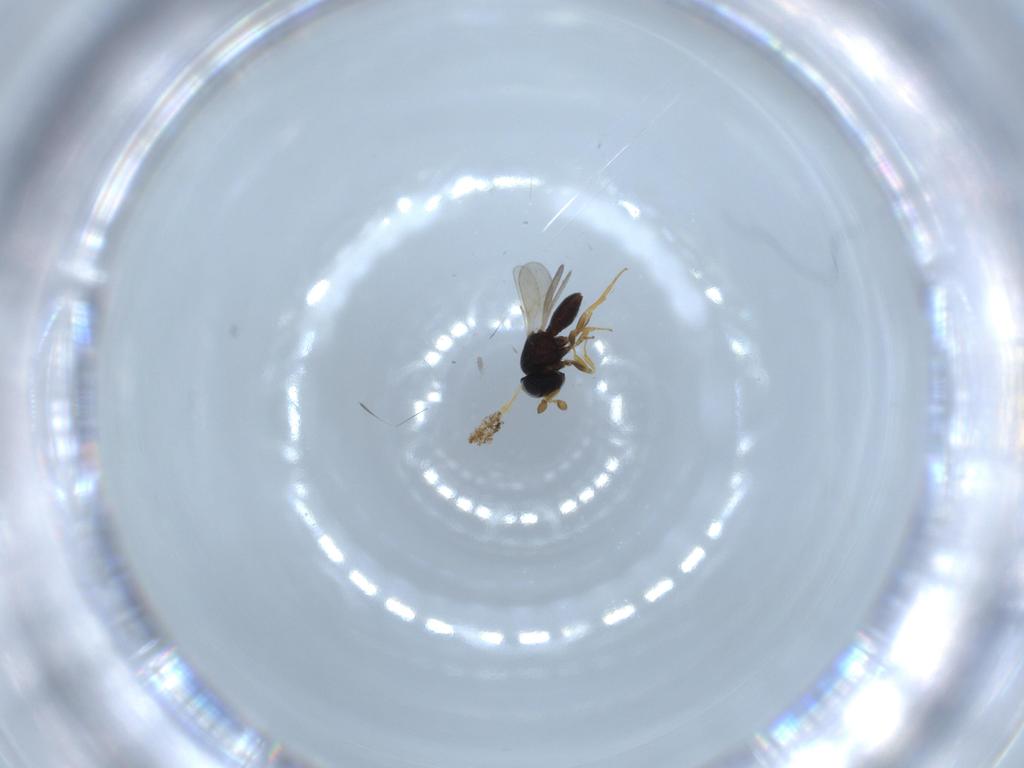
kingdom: Animalia
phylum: Arthropoda
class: Insecta
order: Hymenoptera
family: Scelionidae
